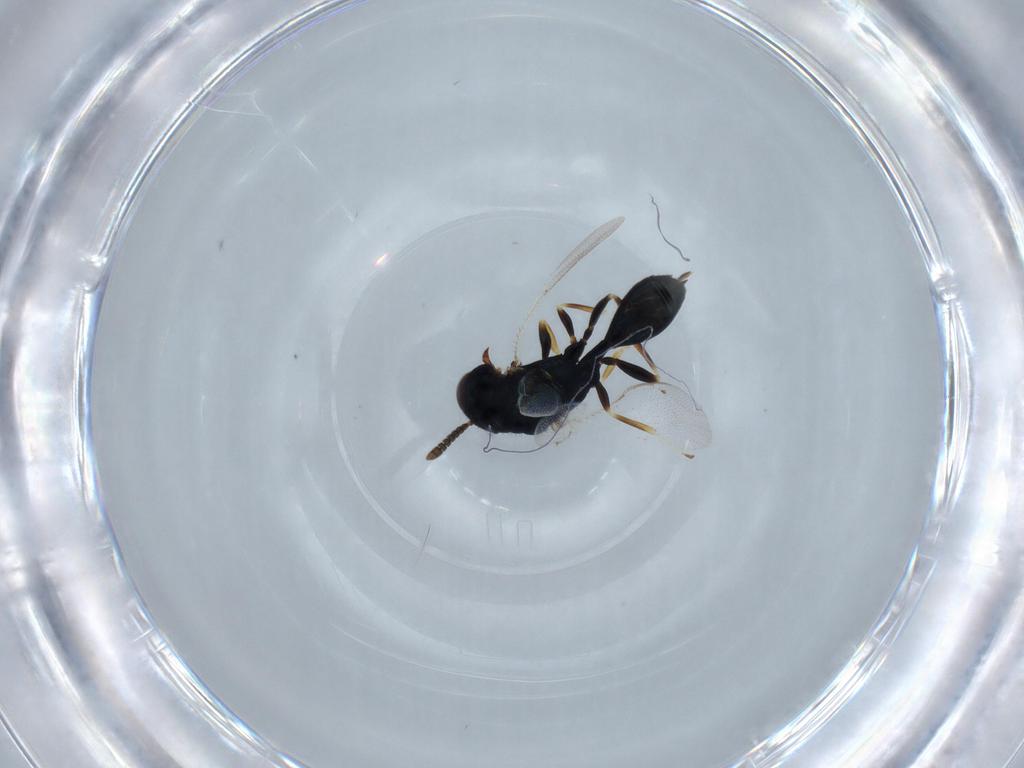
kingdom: Animalia
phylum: Arthropoda
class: Insecta
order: Hymenoptera
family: Pteromalidae
